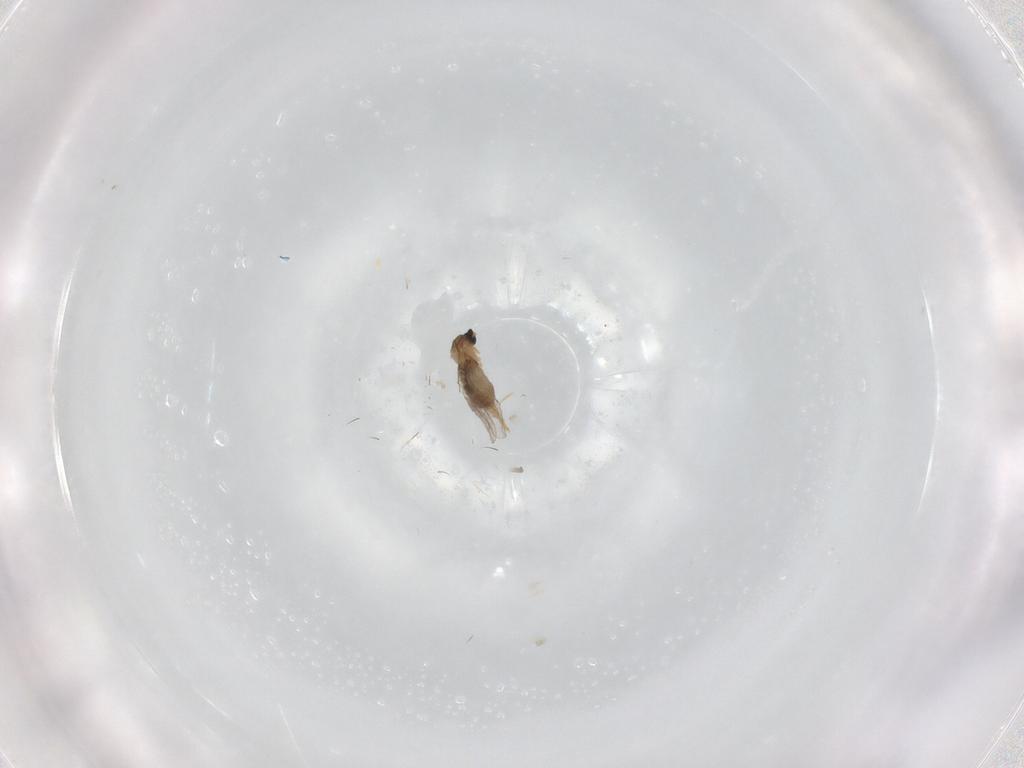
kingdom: Animalia
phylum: Arthropoda
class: Insecta
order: Diptera
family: Cecidomyiidae
